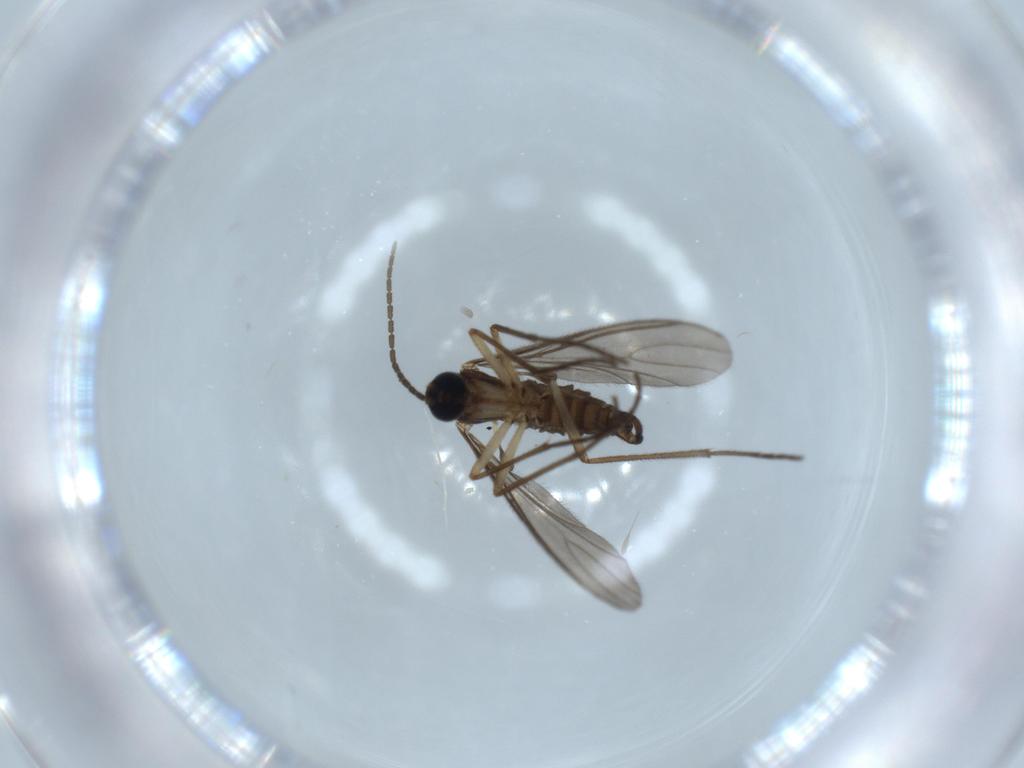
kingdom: Animalia
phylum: Arthropoda
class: Insecta
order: Diptera
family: Sciaridae
